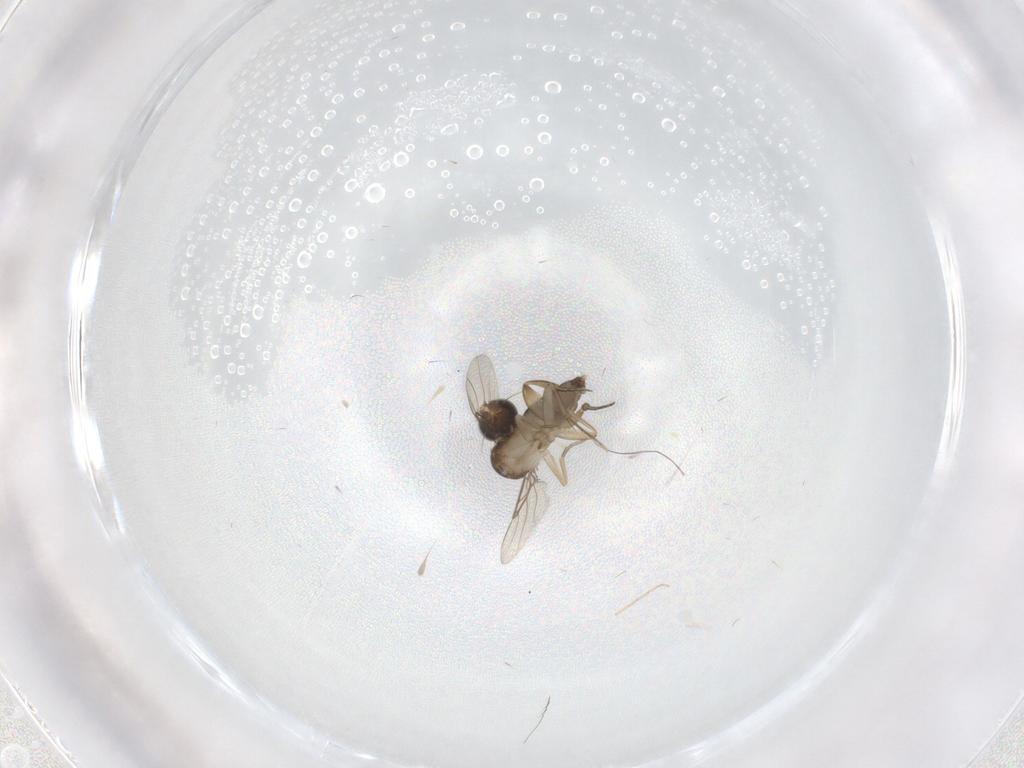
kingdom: Animalia
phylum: Arthropoda
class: Insecta
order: Diptera
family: Phoridae
